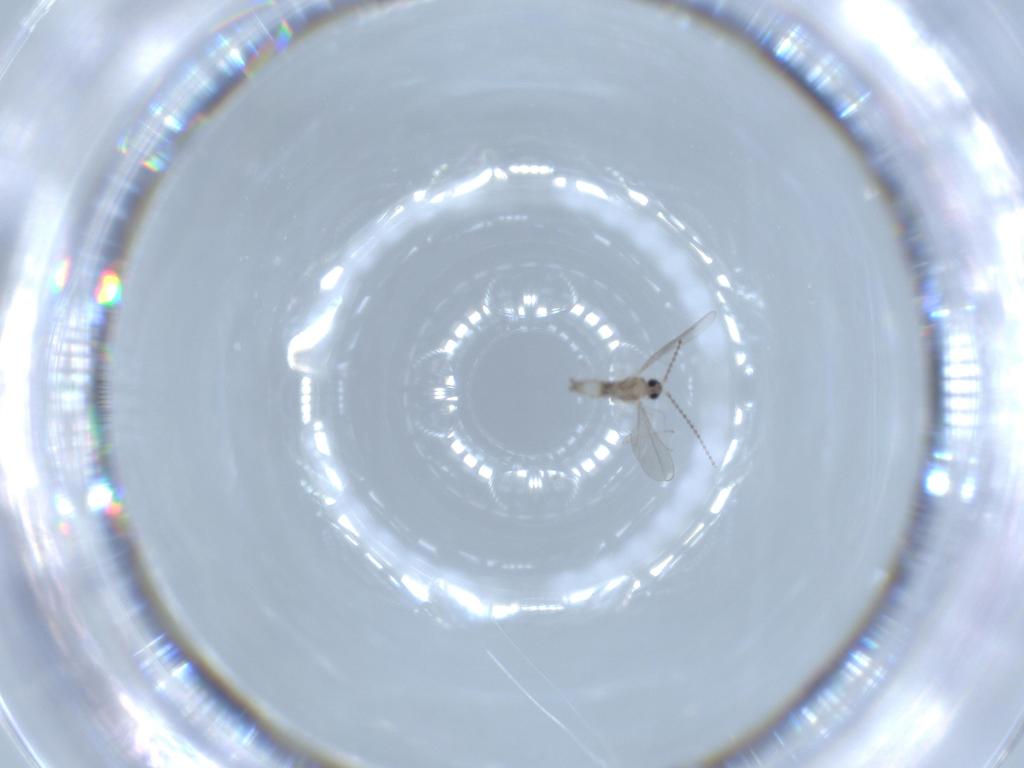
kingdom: Animalia
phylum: Arthropoda
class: Insecta
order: Diptera
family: Cecidomyiidae
